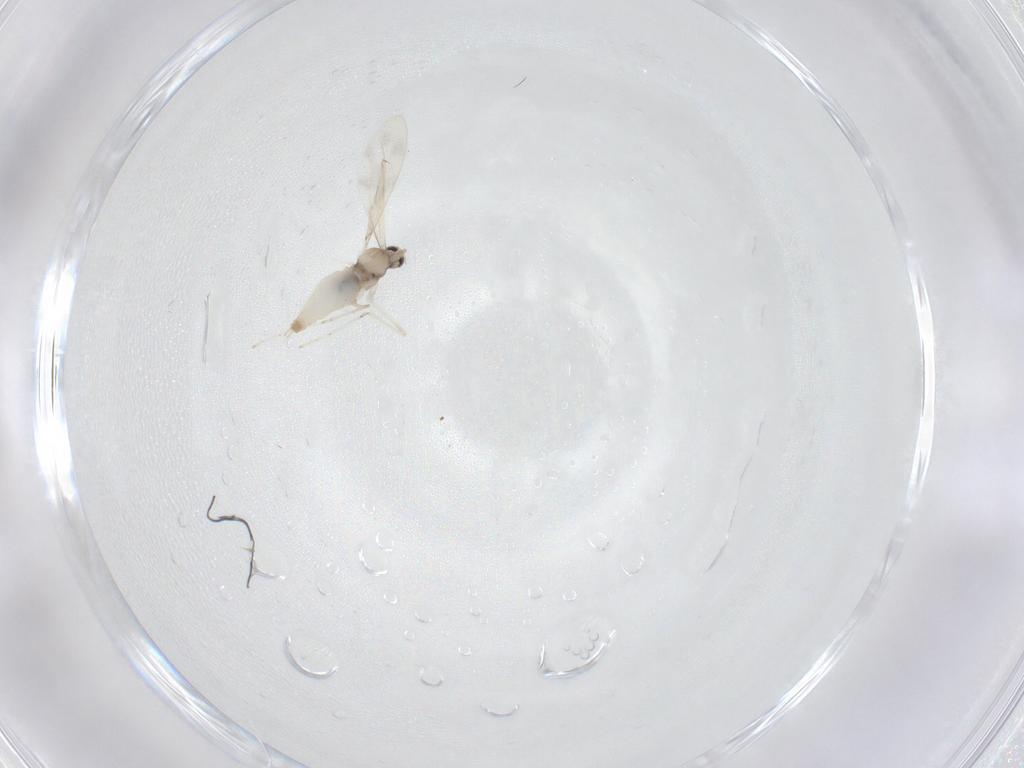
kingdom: Animalia
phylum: Arthropoda
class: Insecta
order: Diptera
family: Cecidomyiidae
